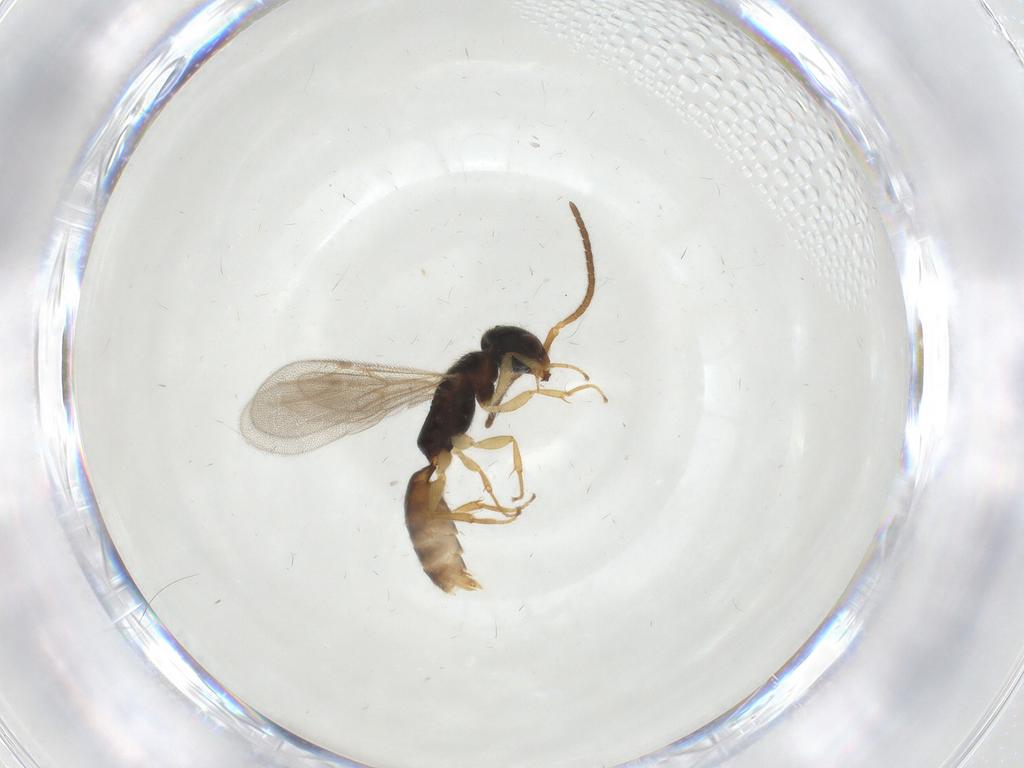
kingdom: Animalia
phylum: Arthropoda
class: Insecta
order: Hymenoptera
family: Bethylidae
